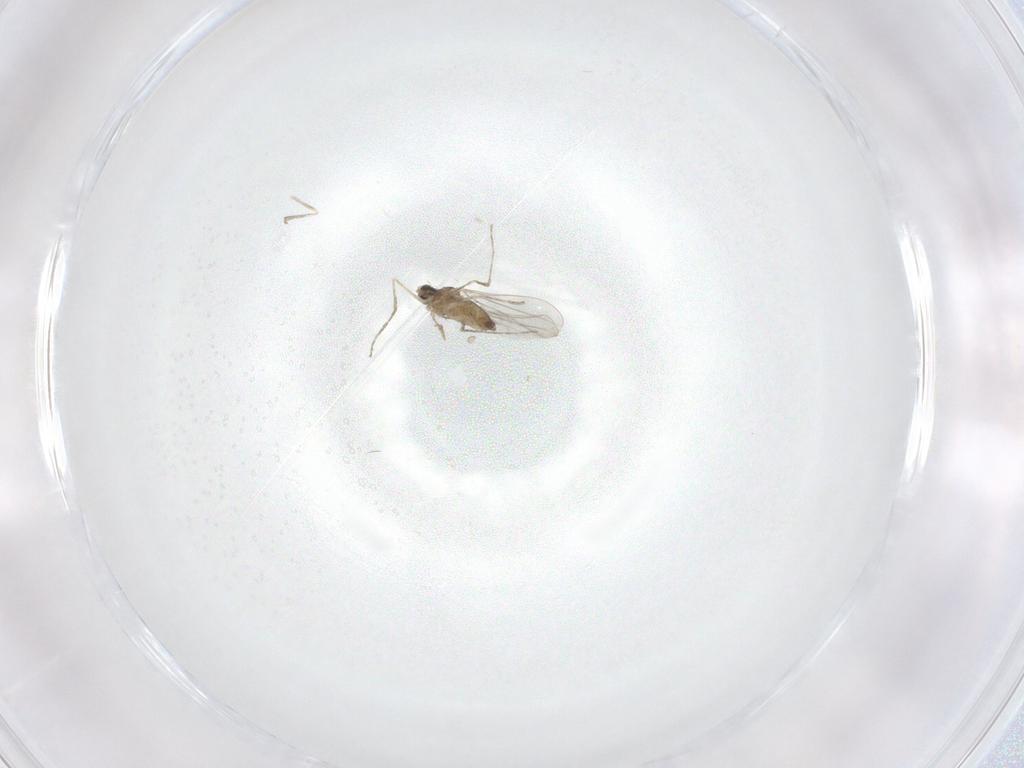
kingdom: Animalia
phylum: Arthropoda
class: Insecta
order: Diptera
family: Cecidomyiidae
